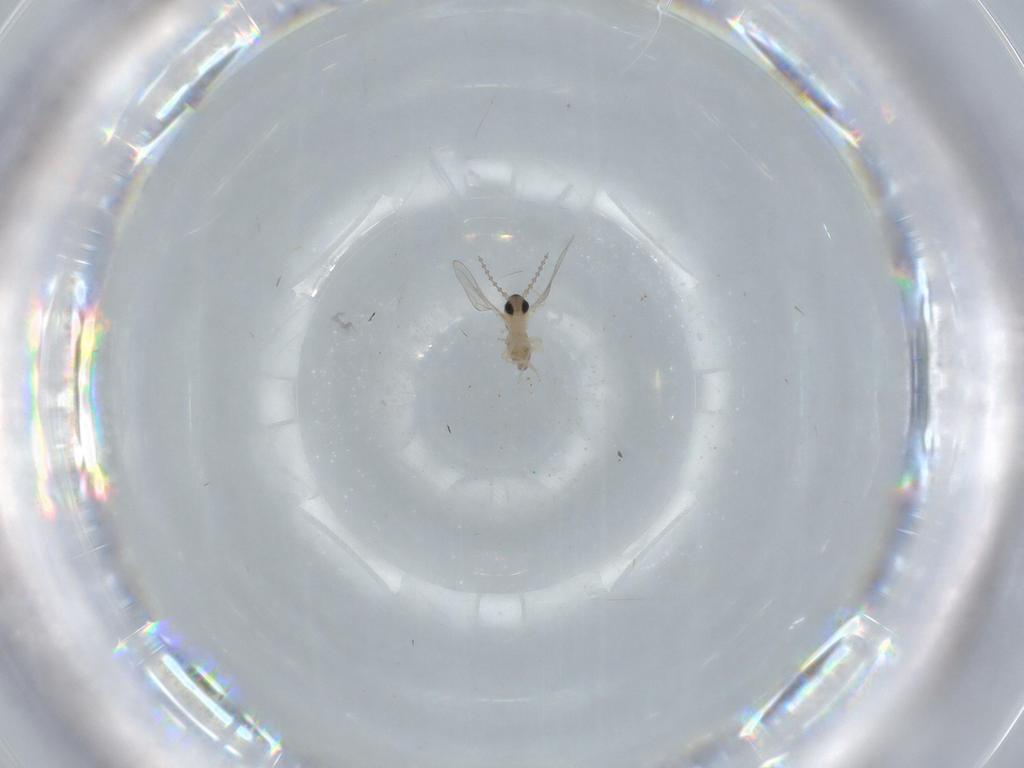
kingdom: Animalia
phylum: Arthropoda
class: Insecta
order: Diptera
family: Cecidomyiidae
